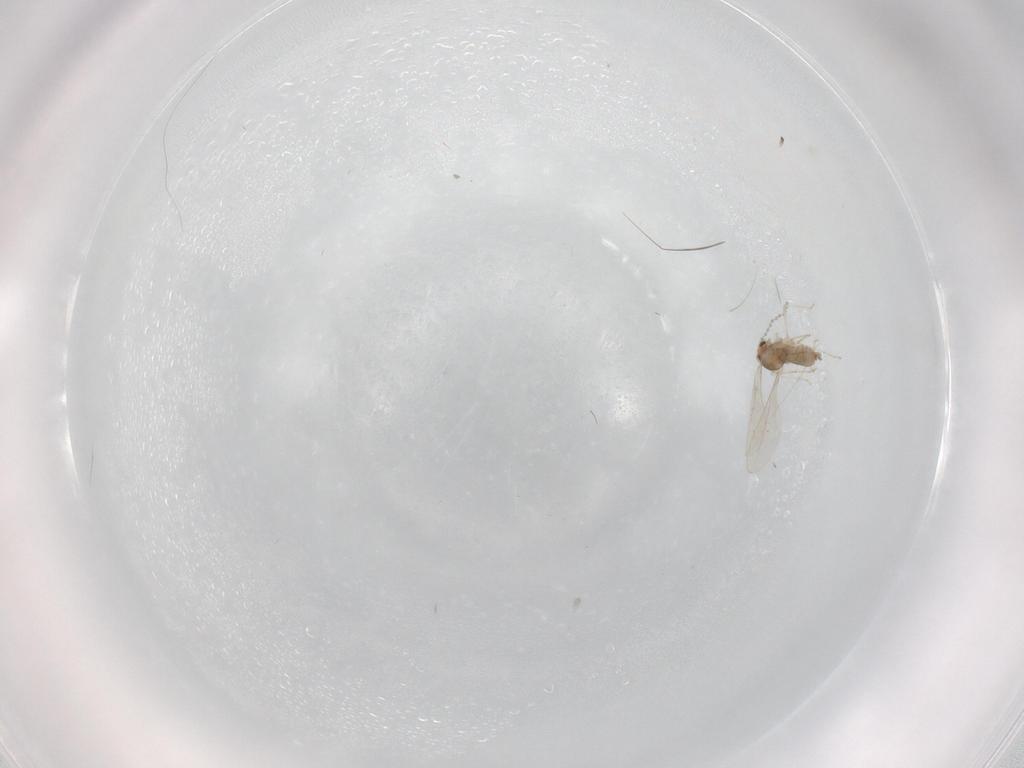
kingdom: Animalia
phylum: Arthropoda
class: Insecta
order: Diptera
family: Cecidomyiidae
